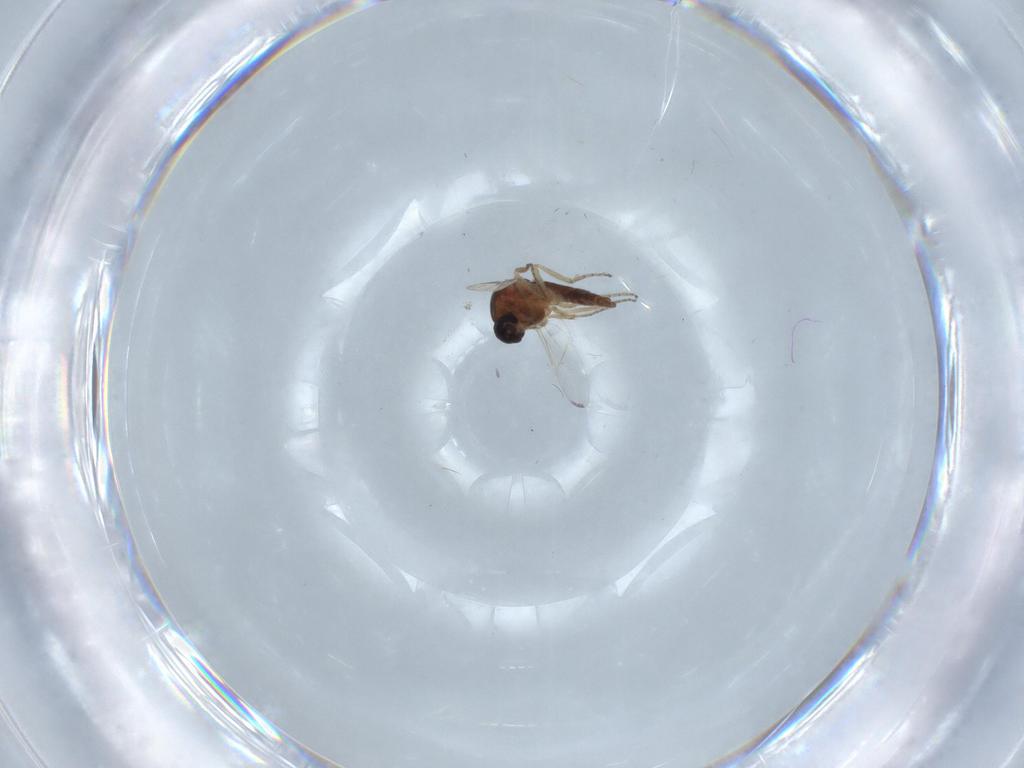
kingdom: Animalia
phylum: Arthropoda
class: Insecta
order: Diptera
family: Ceratopogonidae
